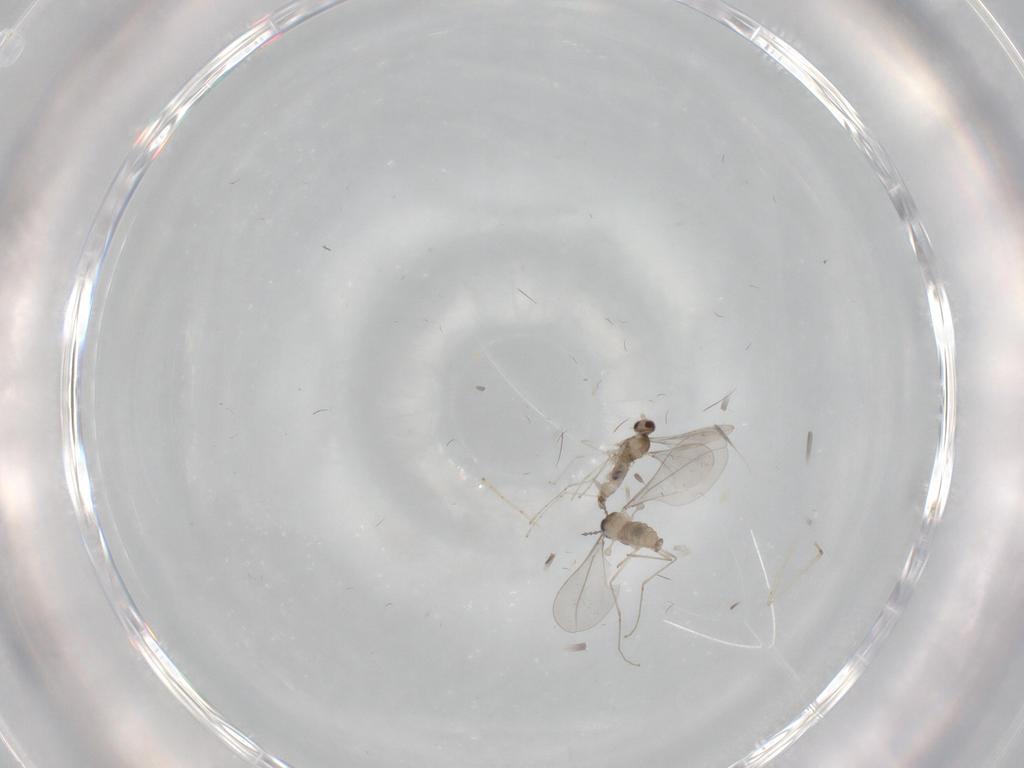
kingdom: Animalia
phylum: Arthropoda
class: Insecta
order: Diptera
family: Cecidomyiidae
